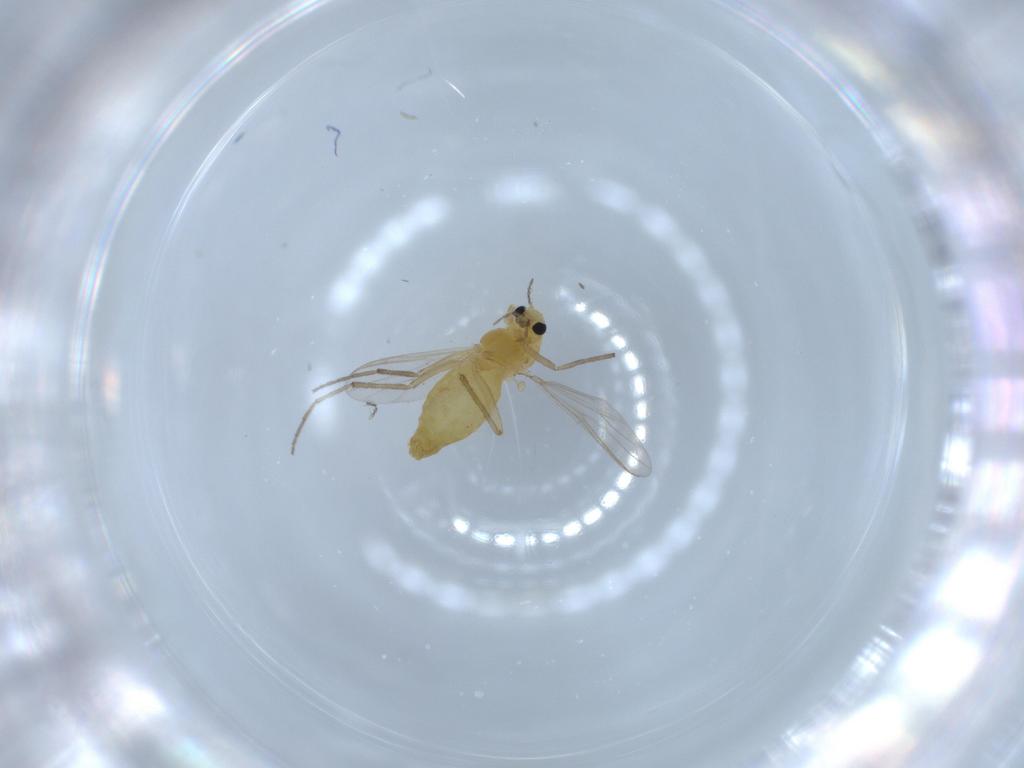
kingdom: Animalia
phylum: Arthropoda
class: Insecta
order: Diptera
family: Chironomidae
